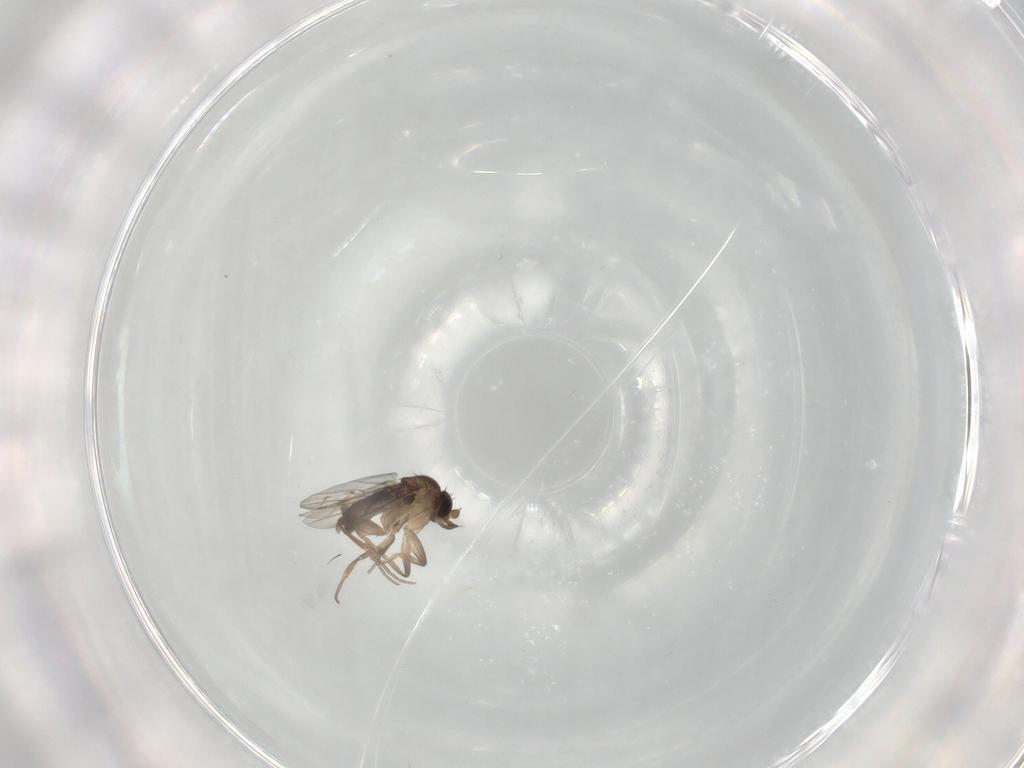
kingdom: Animalia
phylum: Arthropoda
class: Insecta
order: Diptera
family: Phoridae
